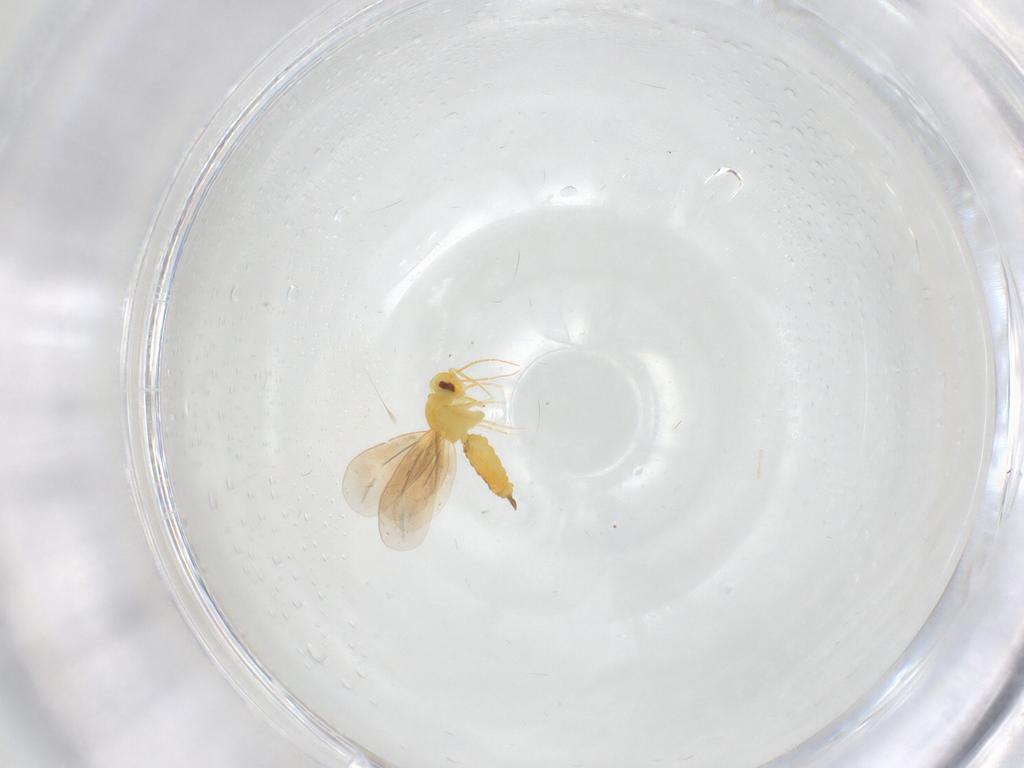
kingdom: Animalia
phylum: Arthropoda
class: Insecta
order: Hemiptera
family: Aleyrodidae
